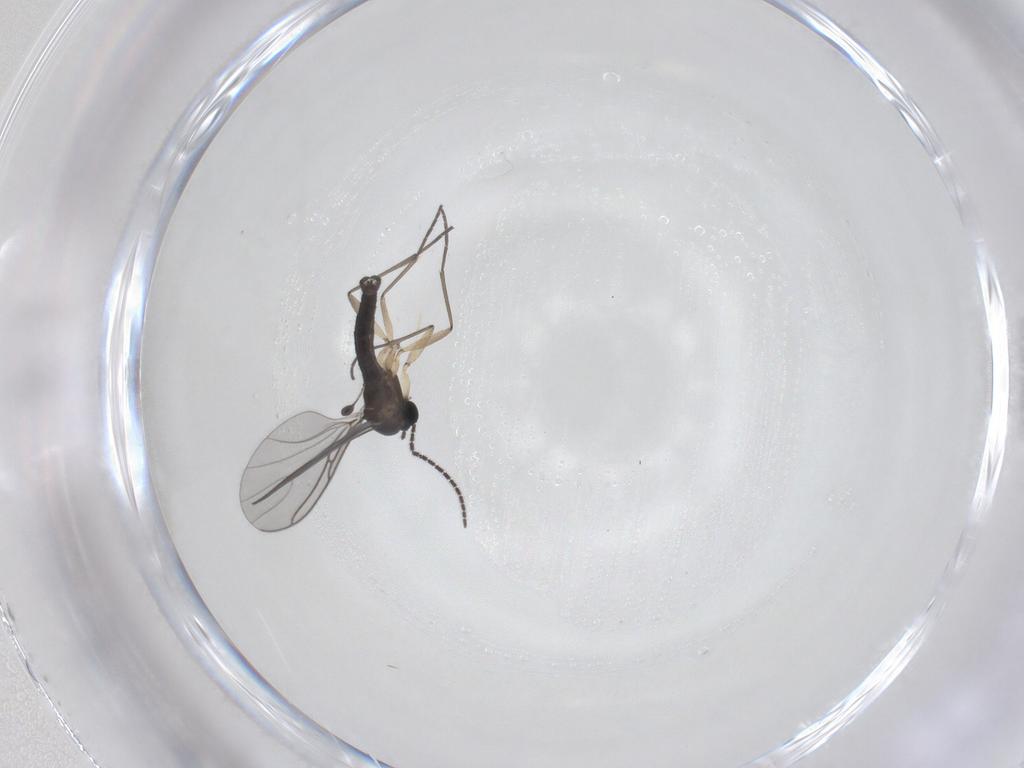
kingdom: Animalia
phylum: Arthropoda
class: Insecta
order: Diptera
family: Sciaridae
